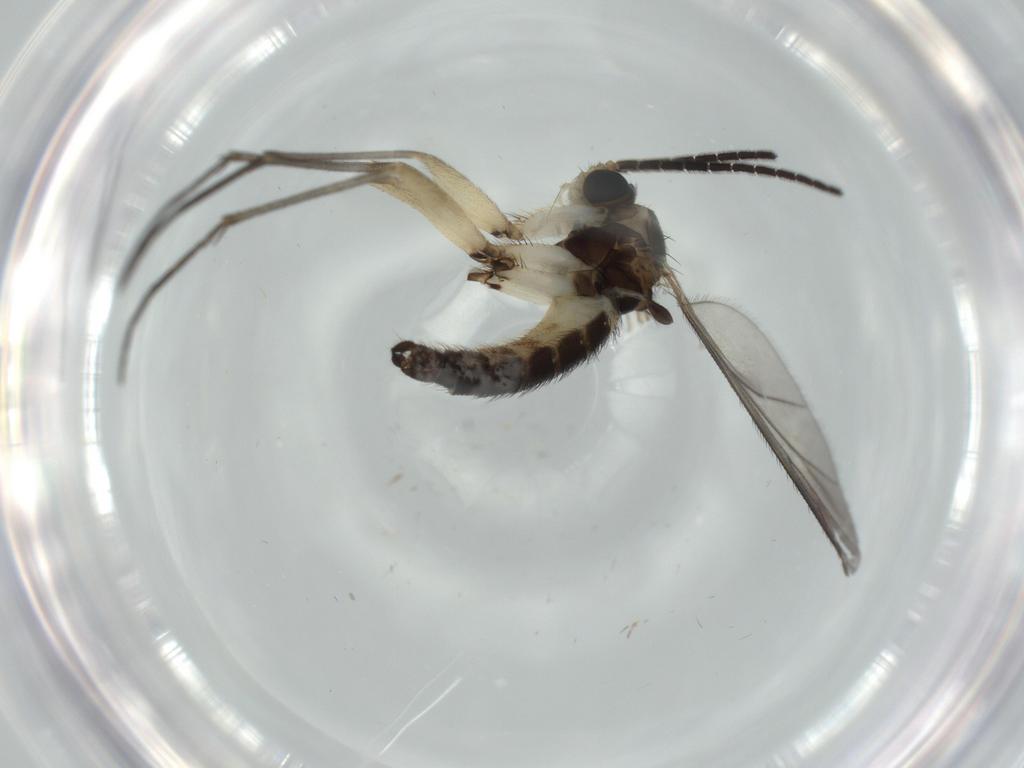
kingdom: Animalia
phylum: Arthropoda
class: Insecta
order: Diptera
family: Sciaridae
